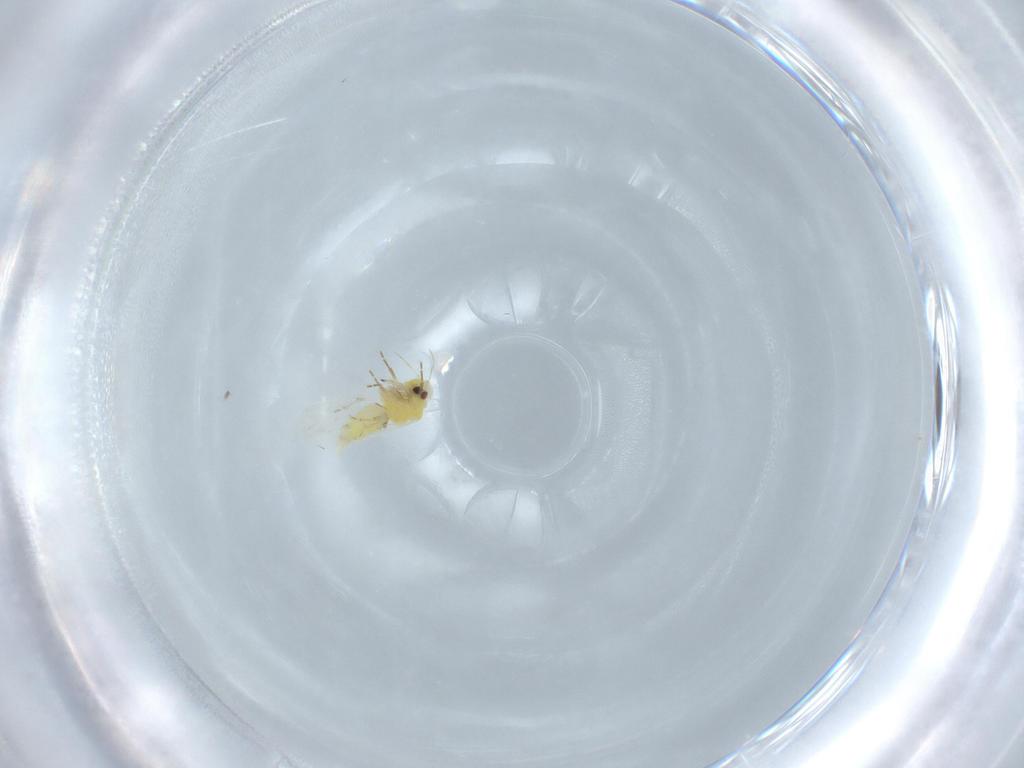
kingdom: Animalia
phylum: Arthropoda
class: Insecta
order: Hemiptera
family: Aleyrodidae
